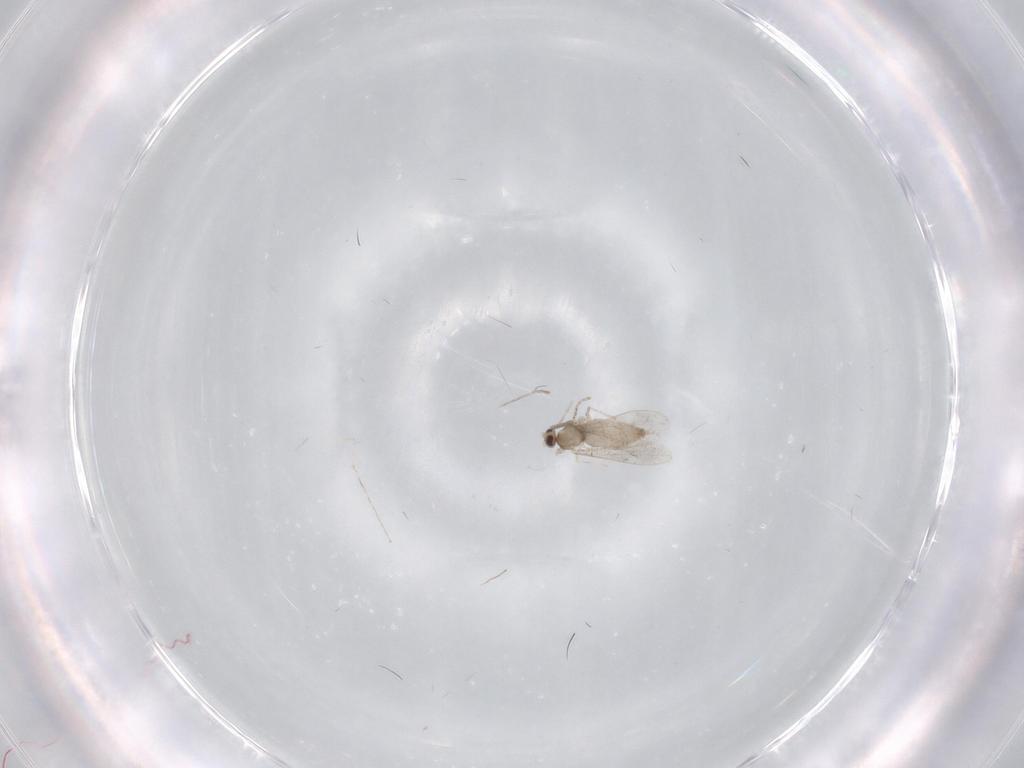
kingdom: Animalia
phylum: Arthropoda
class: Insecta
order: Diptera
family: Cecidomyiidae
